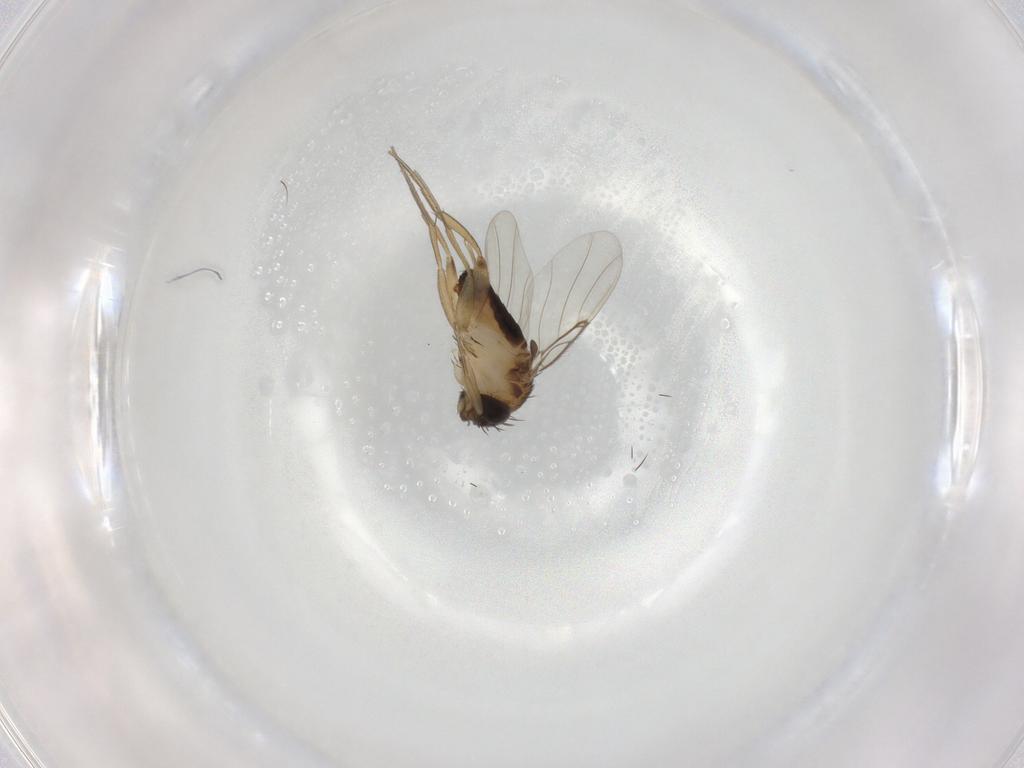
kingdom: Animalia
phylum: Arthropoda
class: Insecta
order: Diptera
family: Phoridae
